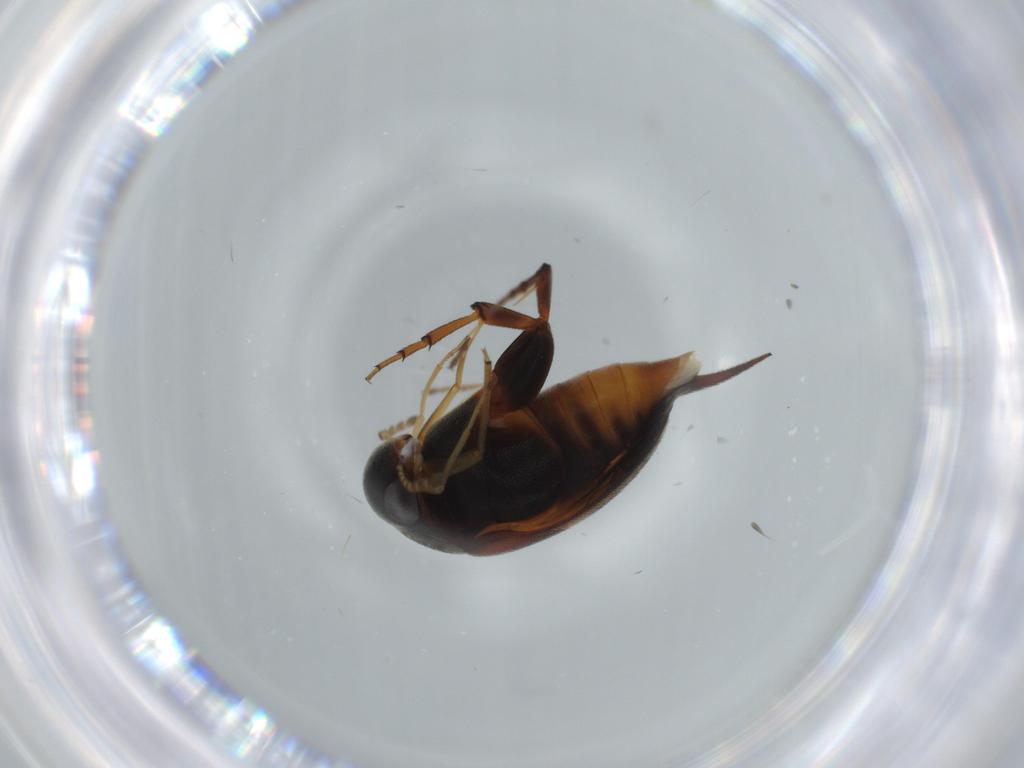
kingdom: Animalia
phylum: Arthropoda
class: Insecta
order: Coleoptera
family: Mordellidae
